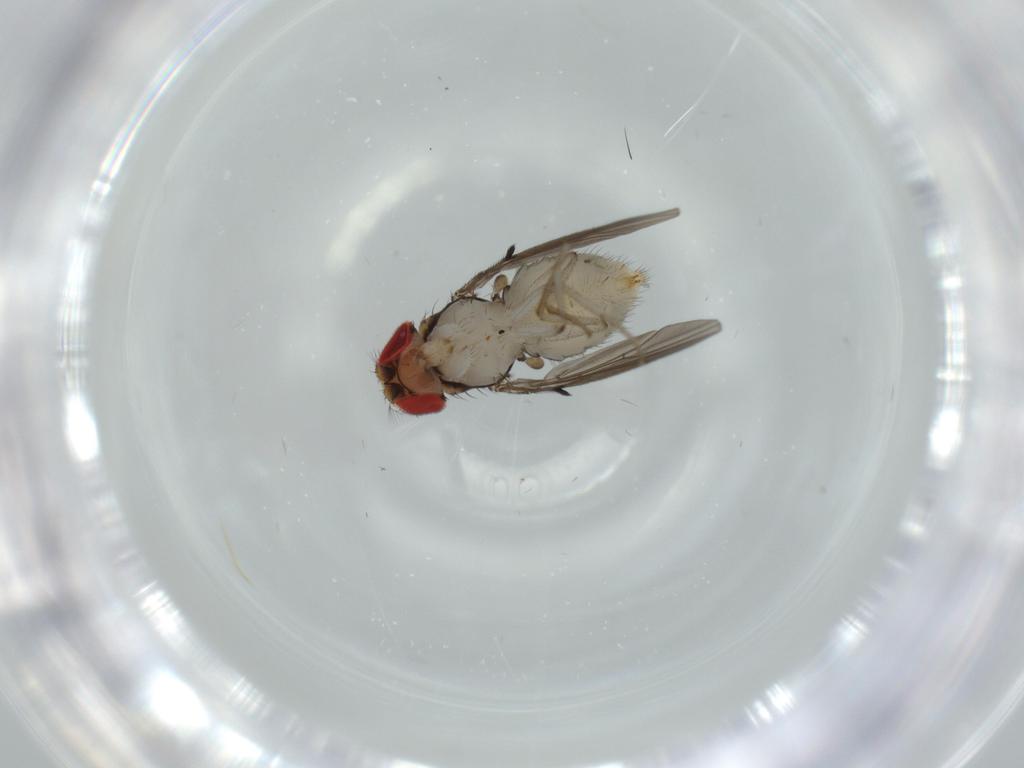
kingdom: Animalia
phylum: Arthropoda
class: Insecta
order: Diptera
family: Drosophilidae
